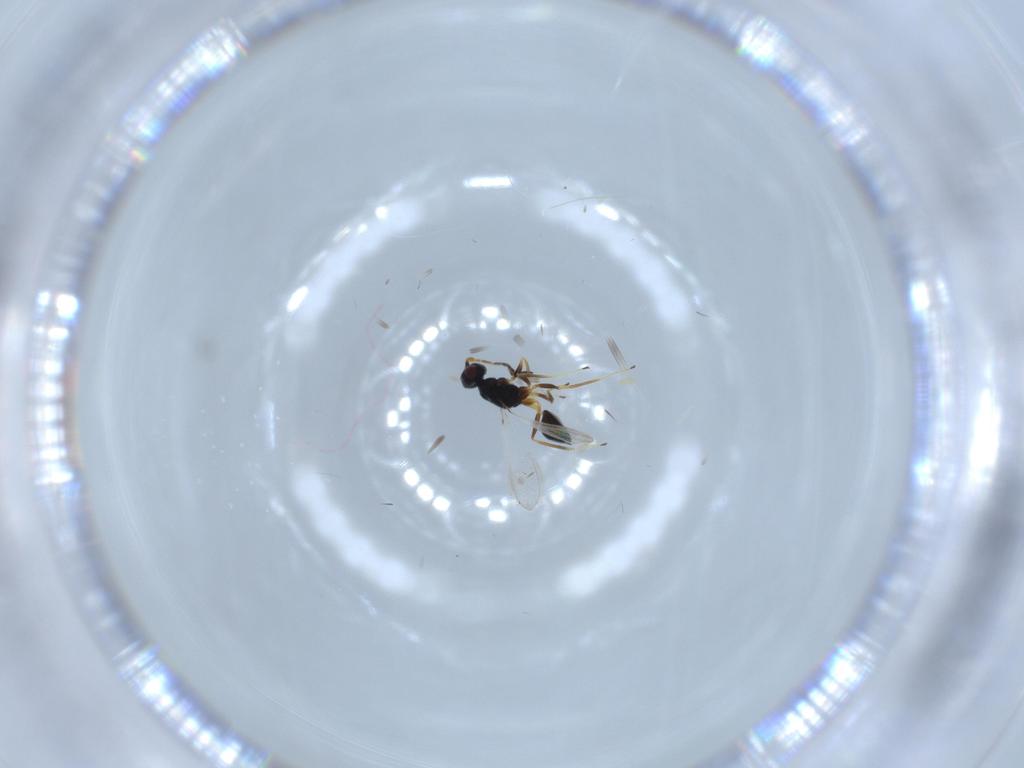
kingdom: Animalia
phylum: Arthropoda
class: Insecta
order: Hymenoptera
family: Mymaridae
